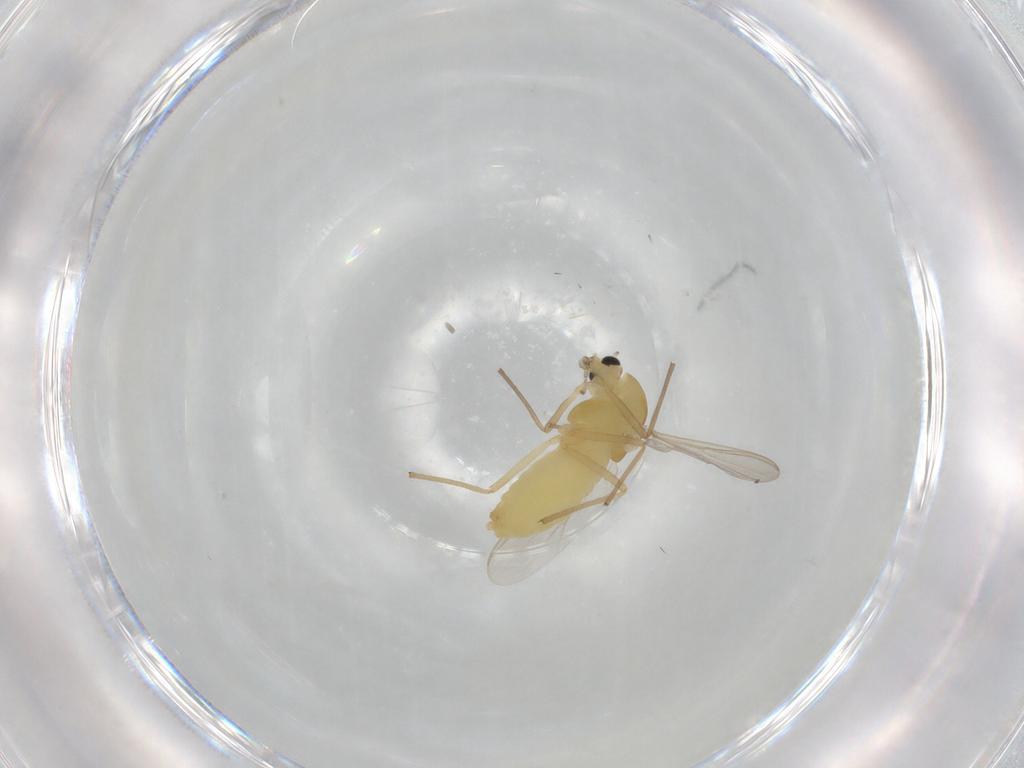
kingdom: Animalia
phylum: Arthropoda
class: Insecta
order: Diptera
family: Chironomidae
